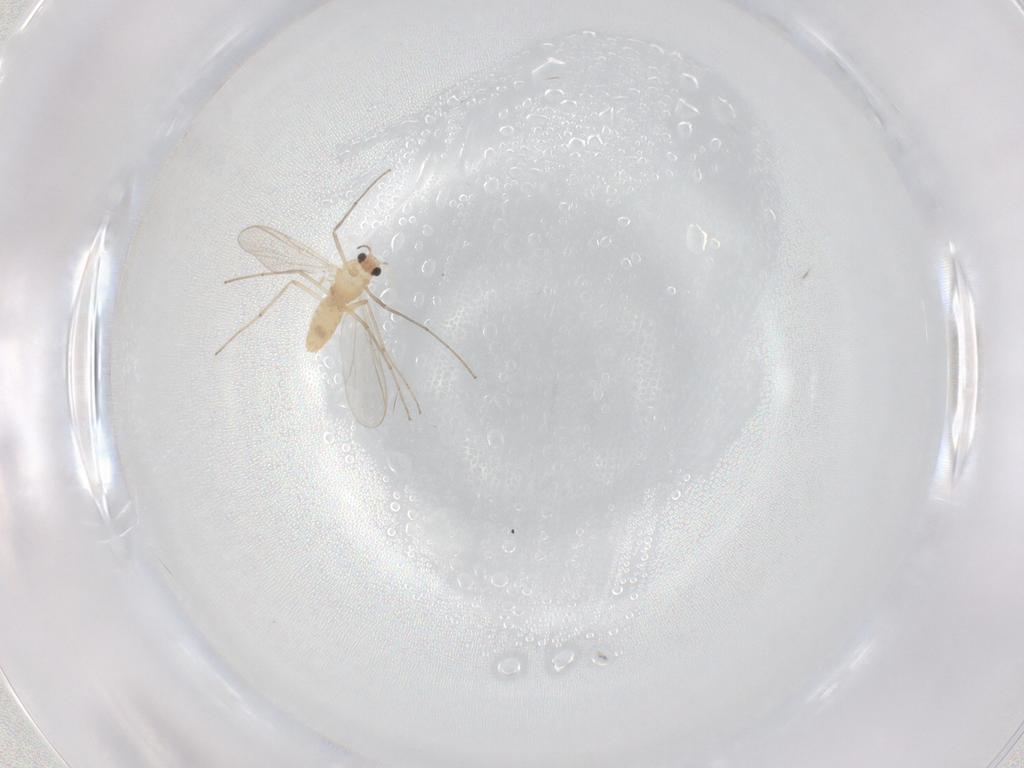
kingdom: Animalia
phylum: Arthropoda
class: Insecta
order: Diptera
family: Chironomidae
